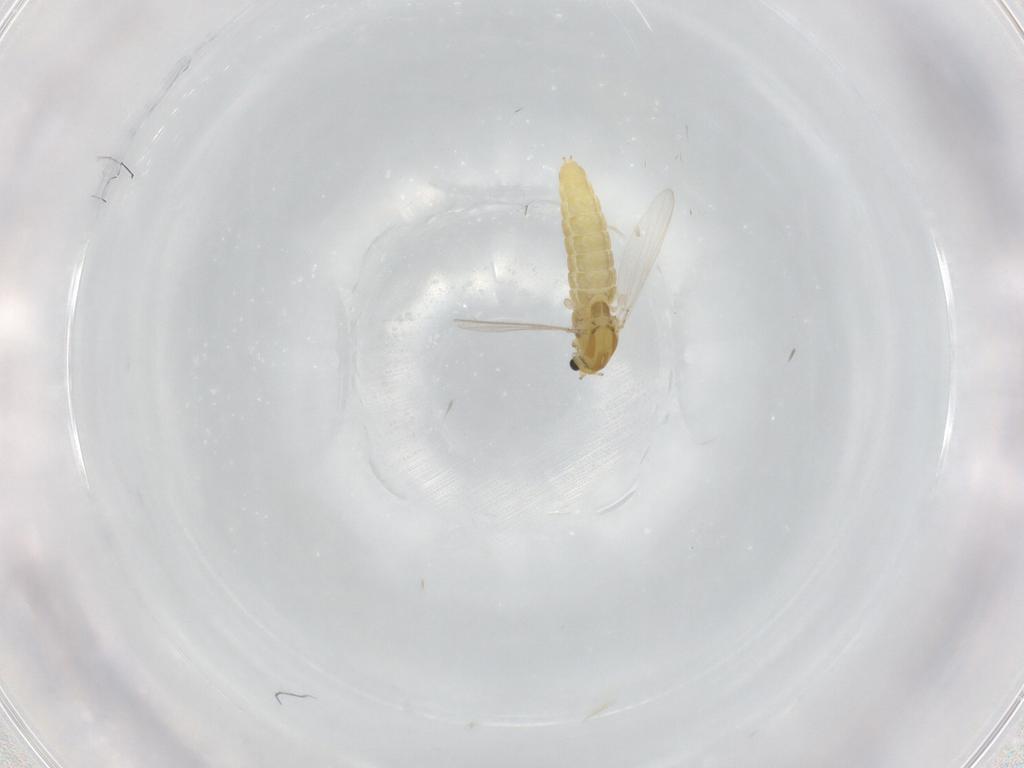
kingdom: Animalia
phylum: Arthropoda
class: Insecta
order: Diptera
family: Chironomidae
